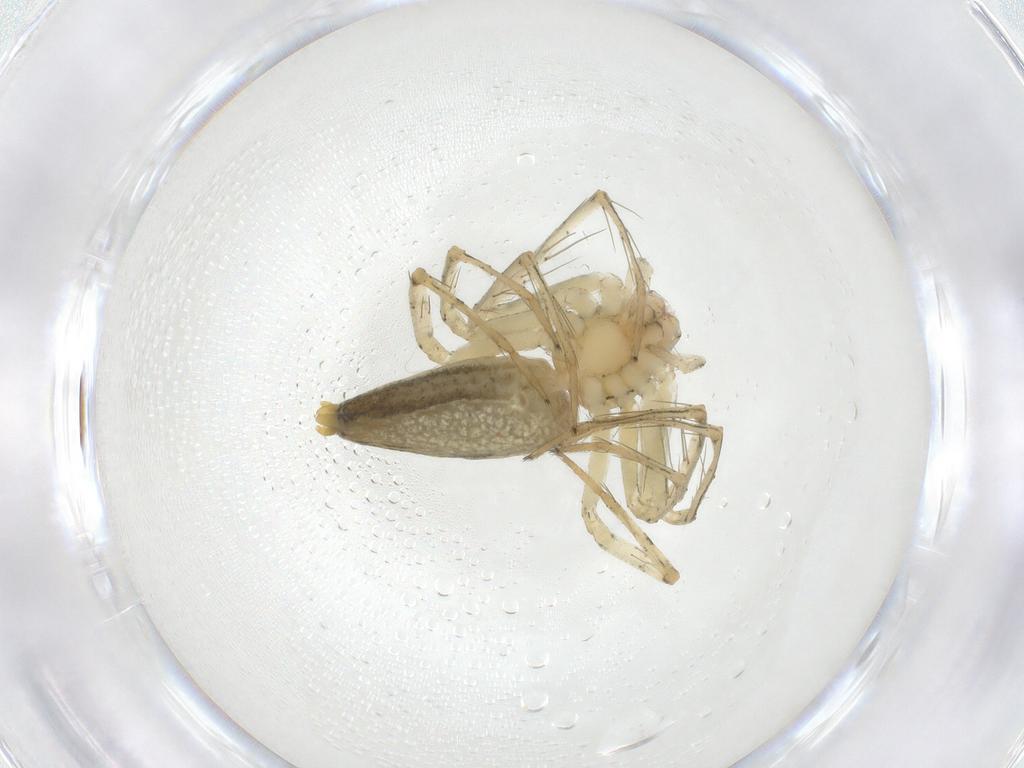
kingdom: Animalia
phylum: Arthropoda
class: Arachnida
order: Araneae
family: Oxyopidae
